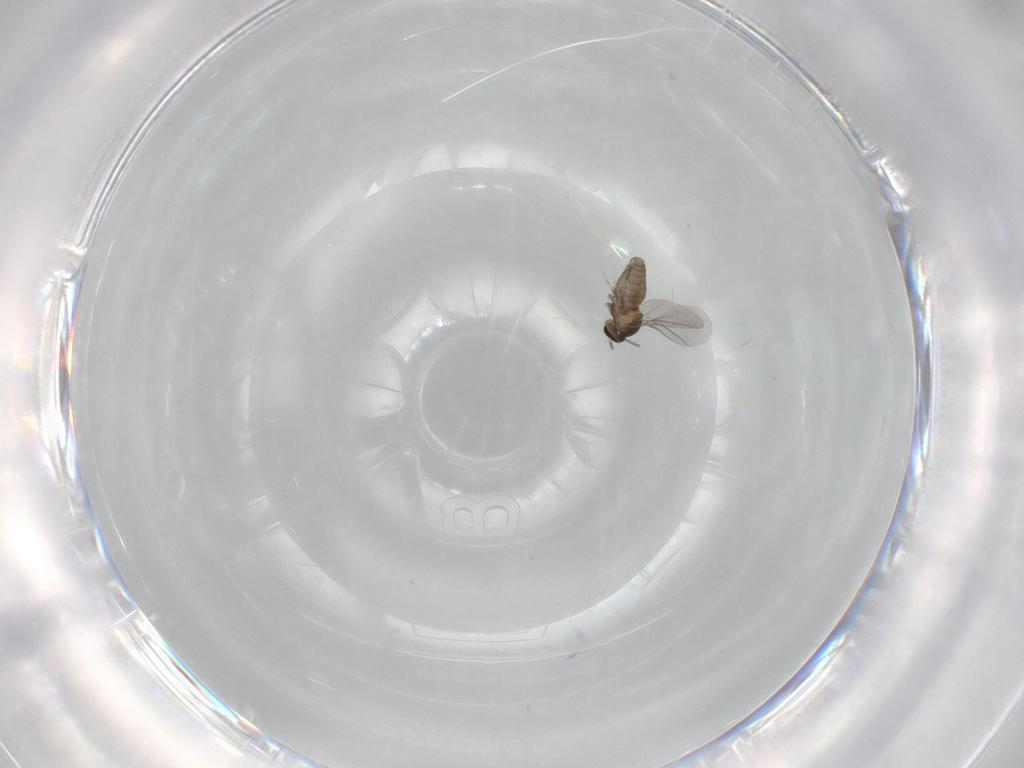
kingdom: Animalia
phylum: Arthropoda
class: Insecta
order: Diptera
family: Cecidomyiidae
